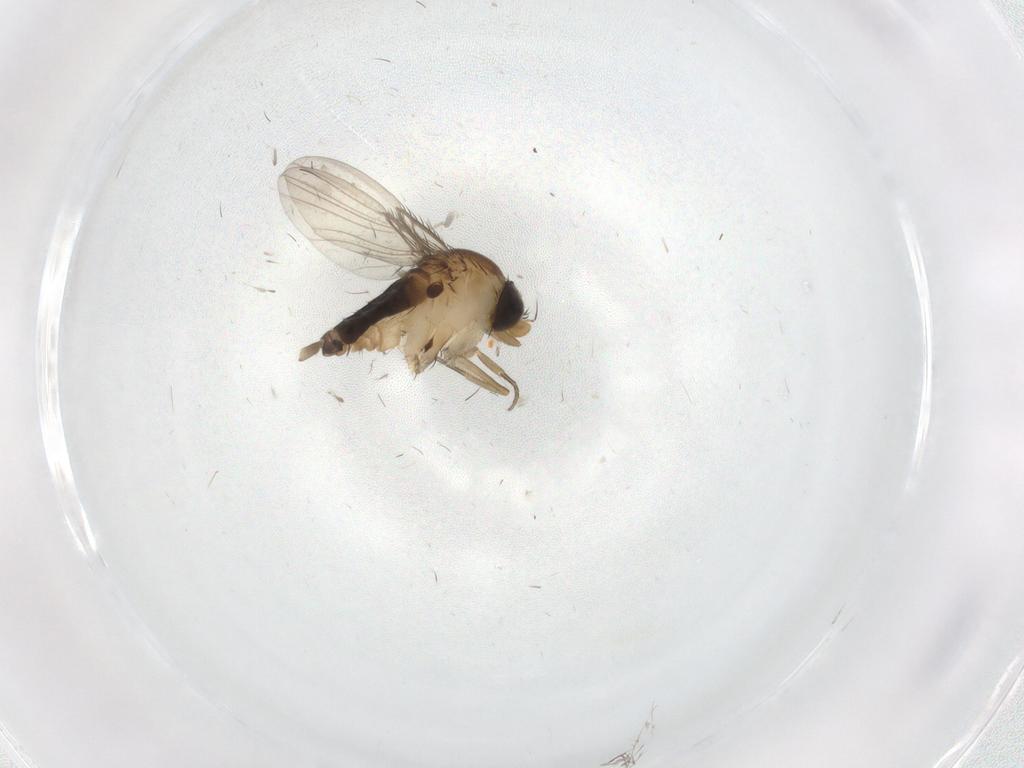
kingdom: Animalia
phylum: Arthropoda
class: Insecta
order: Diptera
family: Phoridae
